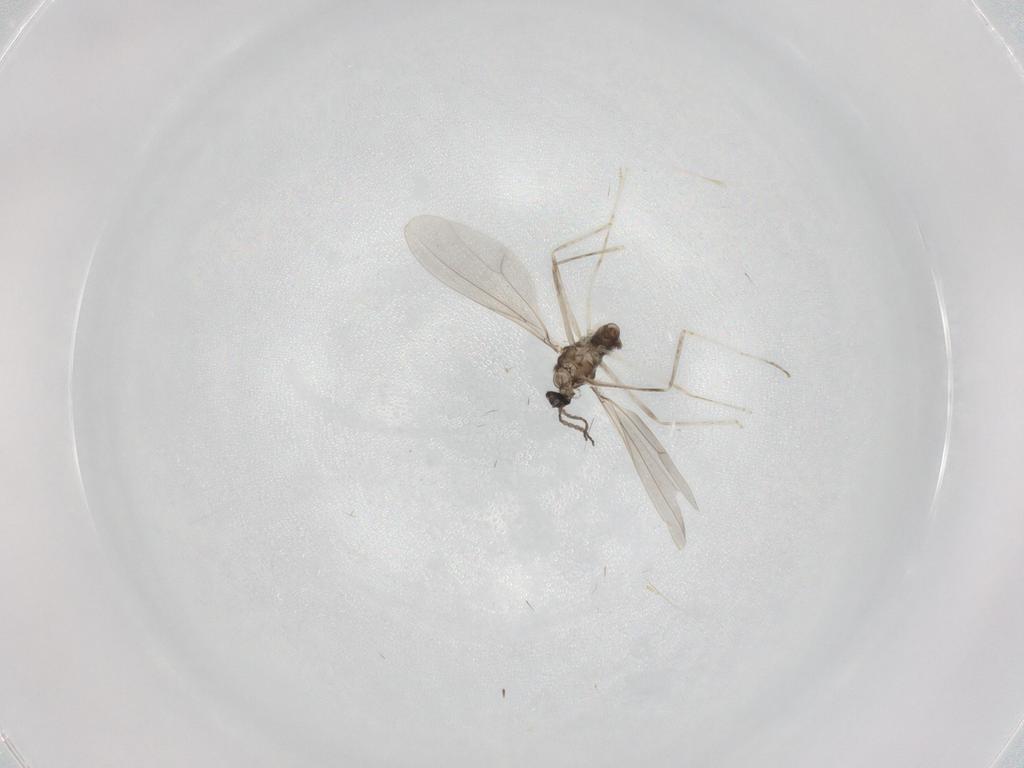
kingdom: Animalia
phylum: Arthropoda
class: Insecta
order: Diptera
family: Cecidomyiidae
